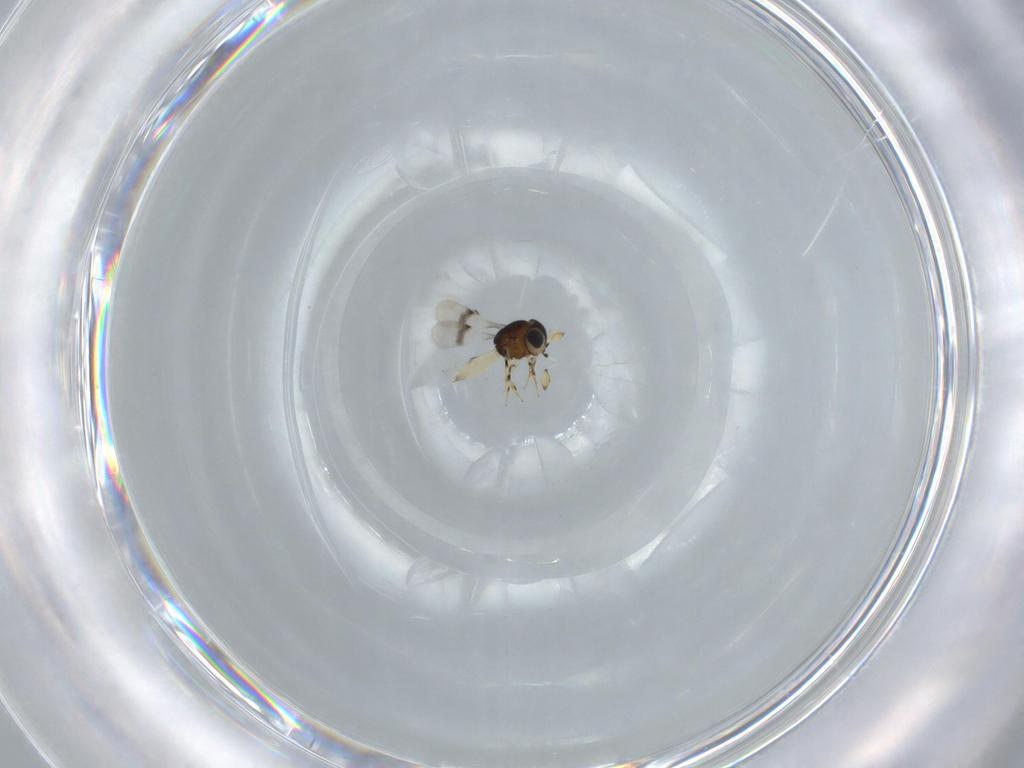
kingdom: Animalia
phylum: Arthropoda
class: Insecta
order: Hymenoptera
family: Scelionidae
